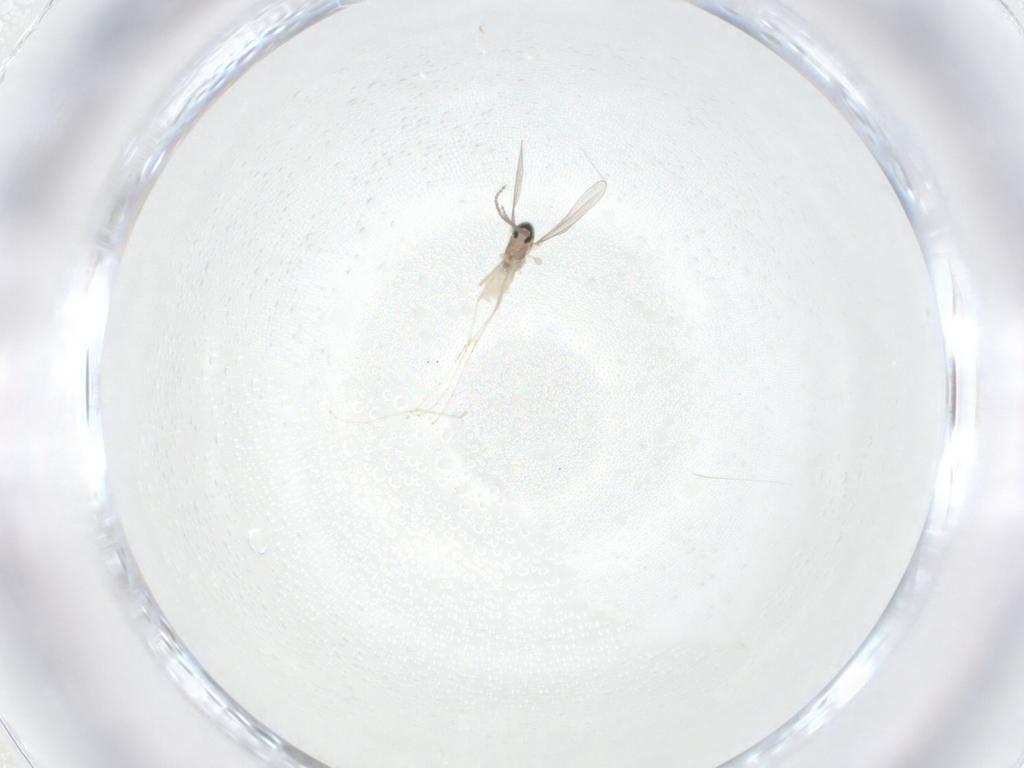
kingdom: Animalia
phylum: Arthropoda
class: Insecta
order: Diptera
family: Cecidomyiidae
